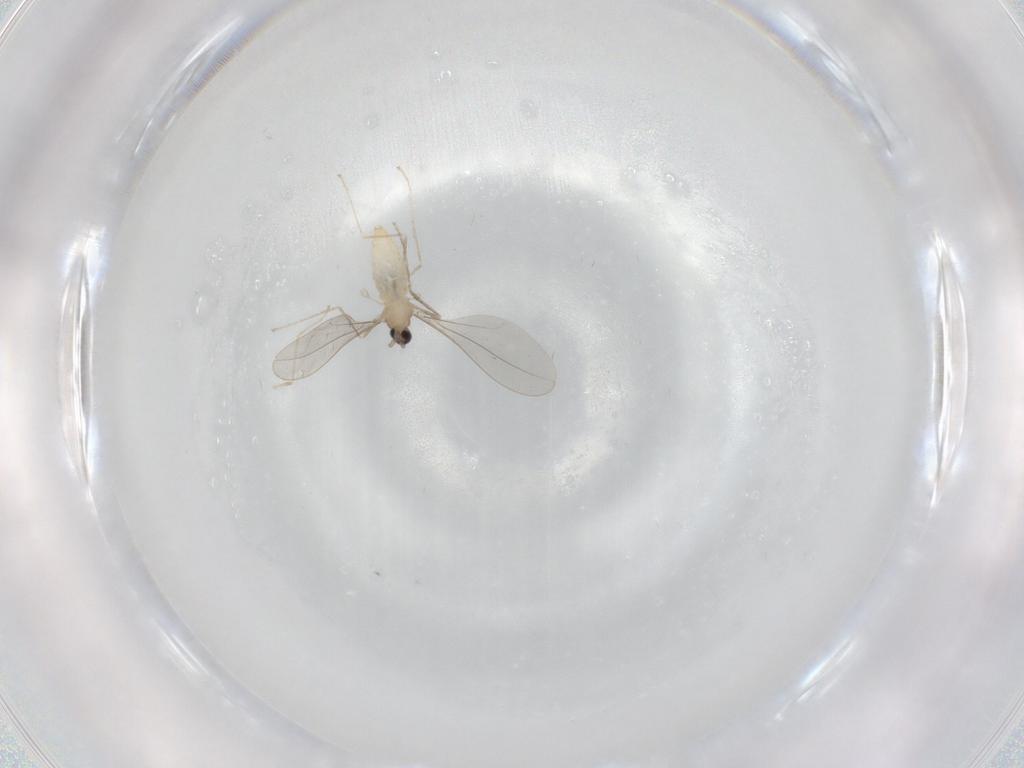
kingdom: Animalia
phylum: Arthropoda
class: Insecta
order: Diptera
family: Cecidomyiidae
